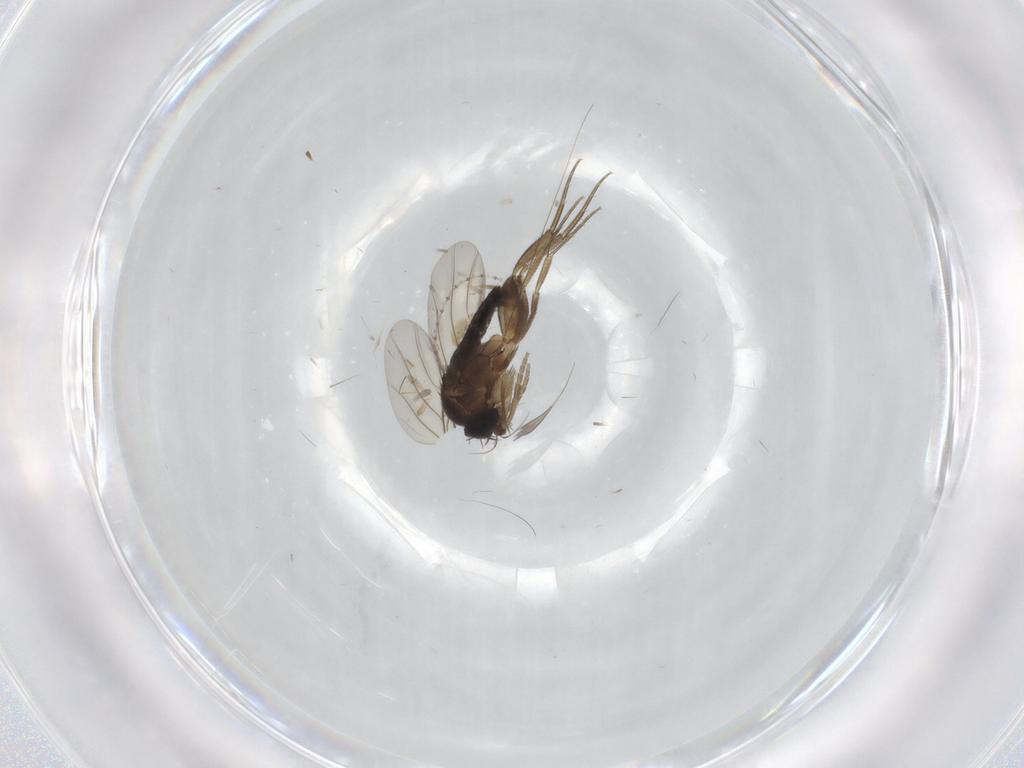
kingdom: Animalia
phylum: Arthropoda
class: Insecta
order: Diptera
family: Phoridae
